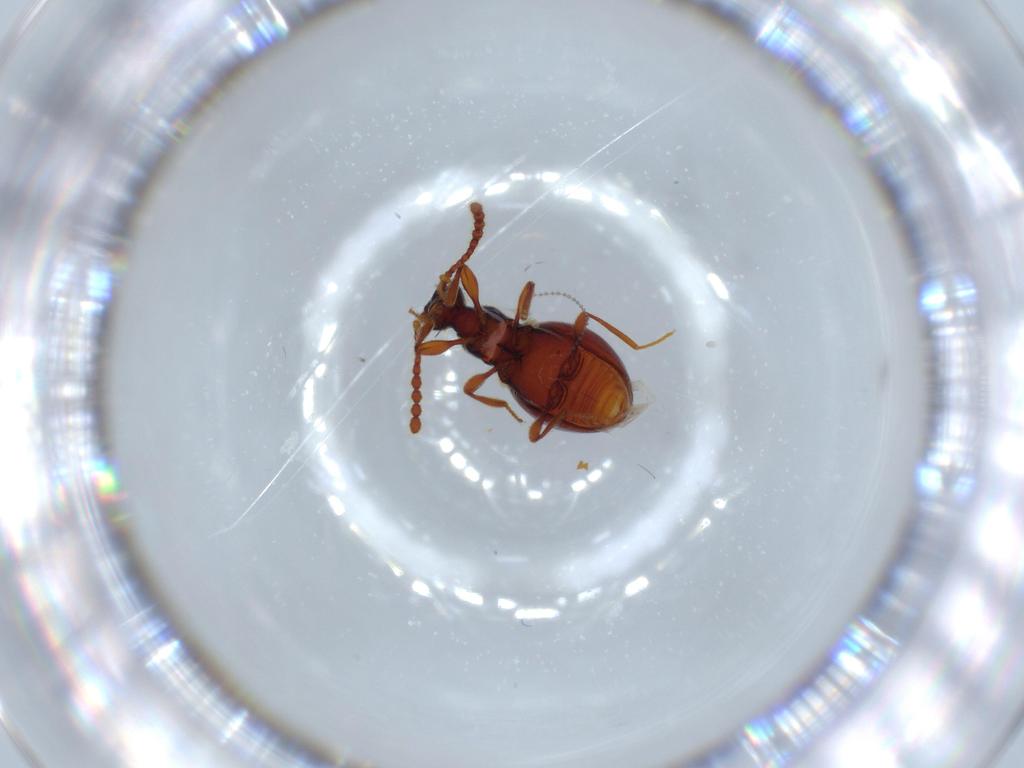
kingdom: Animalia
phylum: Arthropoda
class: Insecta
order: Coleoptera
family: Staphylinidae
